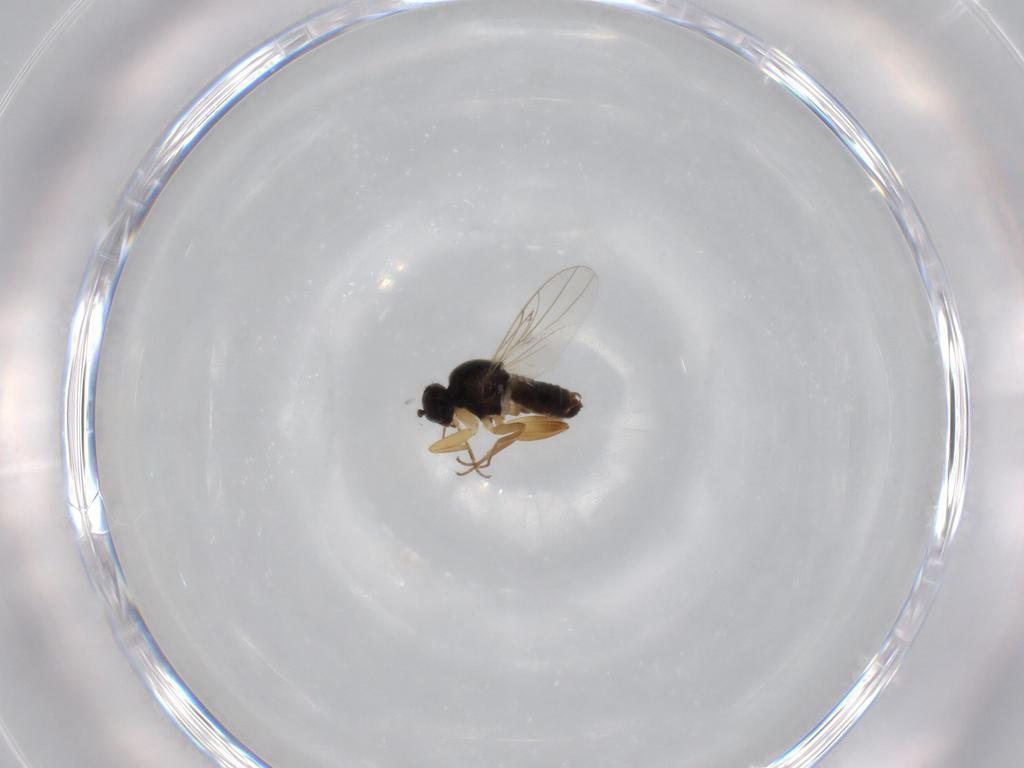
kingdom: Animalia
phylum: Arthropoda
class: Insecta
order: Diptera
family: Hybotidae
